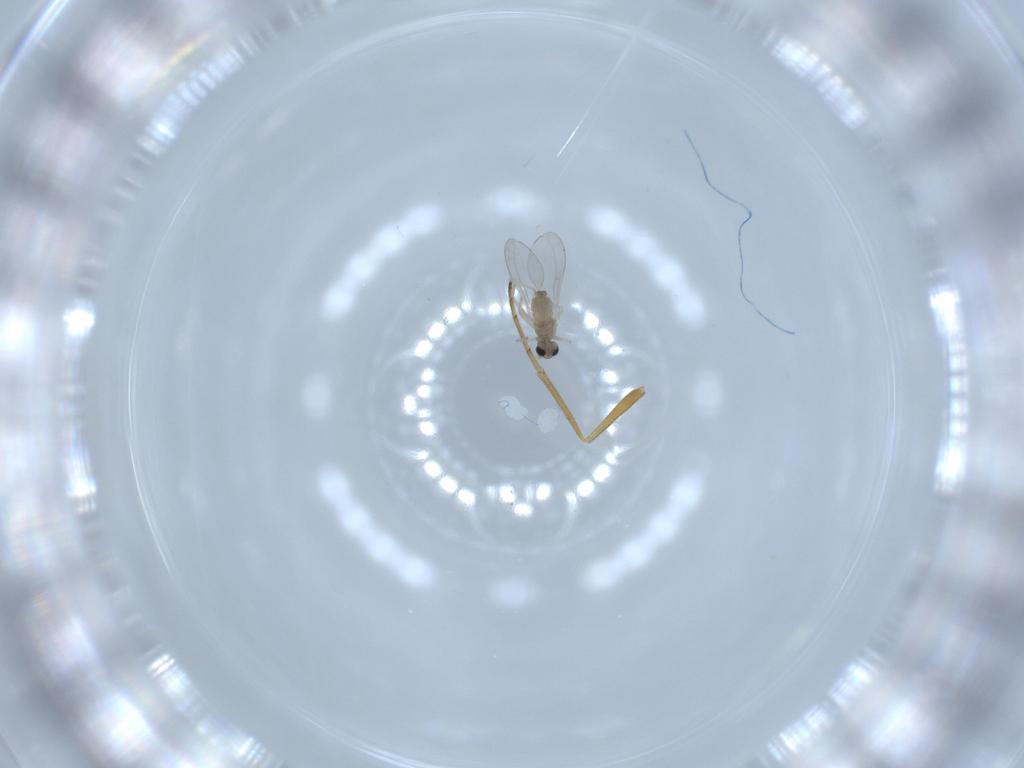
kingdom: Animalia
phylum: Arthropoda
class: Insecta
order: Diptera
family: Cecidomyiidae
